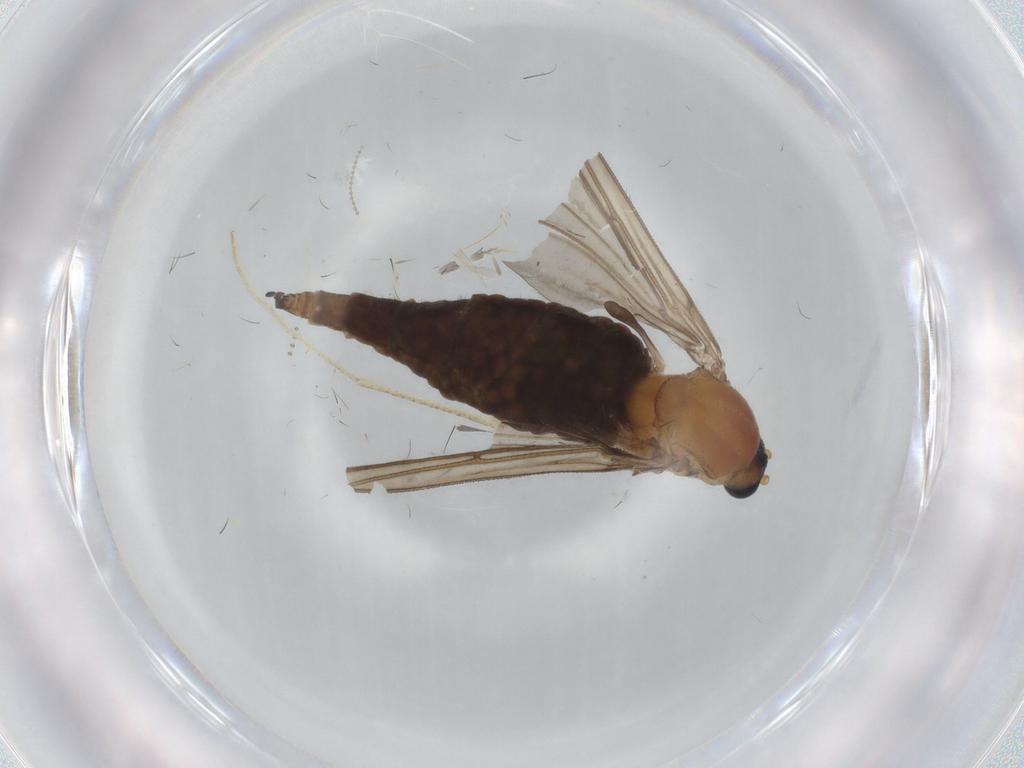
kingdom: Animalia
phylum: Arthropoda
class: Insecta
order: Diptera
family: Sciaridae
